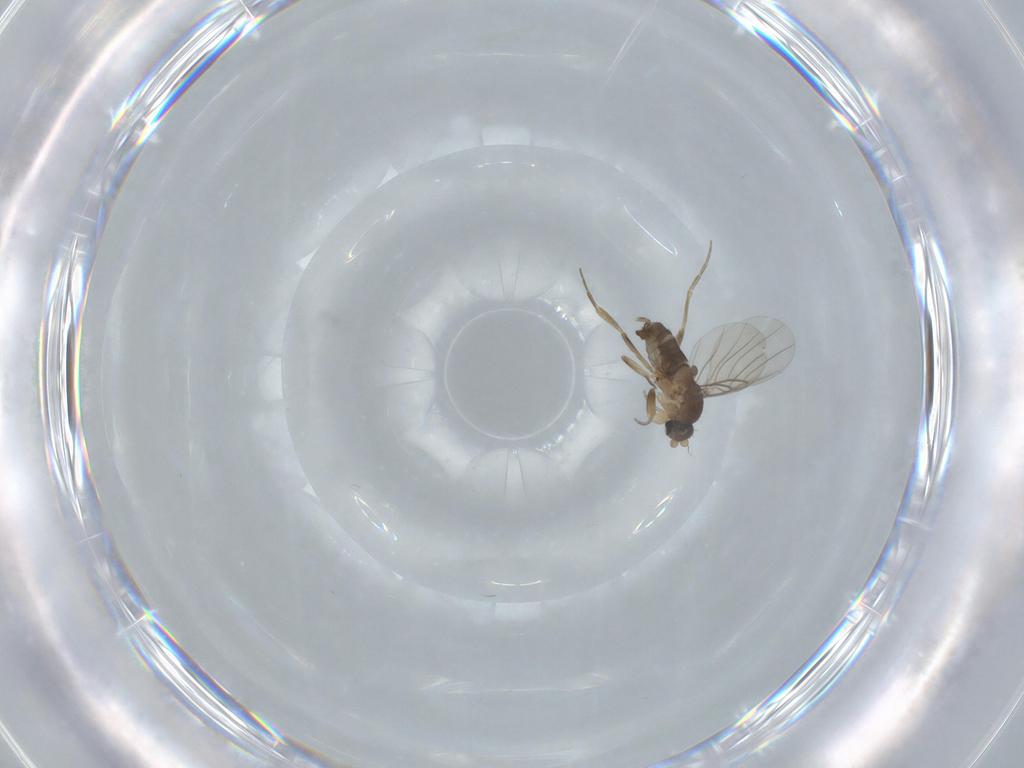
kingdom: Animalia
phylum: Arthropoda
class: Insecta
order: Diptera
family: Phoridae
